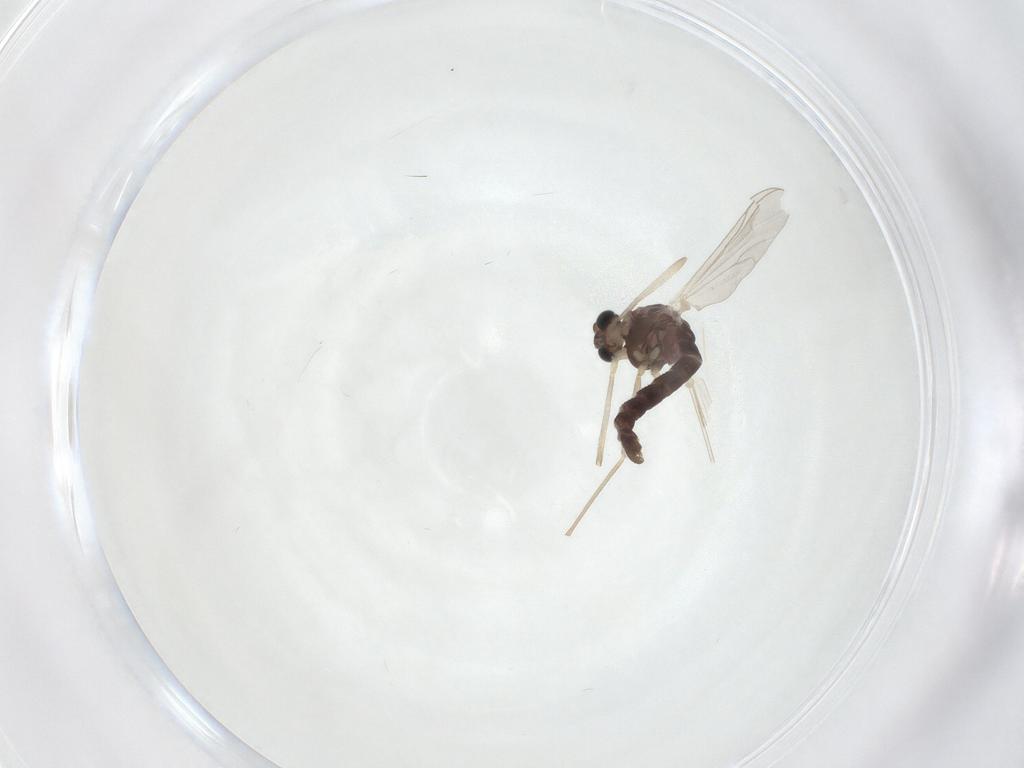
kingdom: Animalia
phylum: Arthropoda
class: Insecta
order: Diptera
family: Chironomidae
